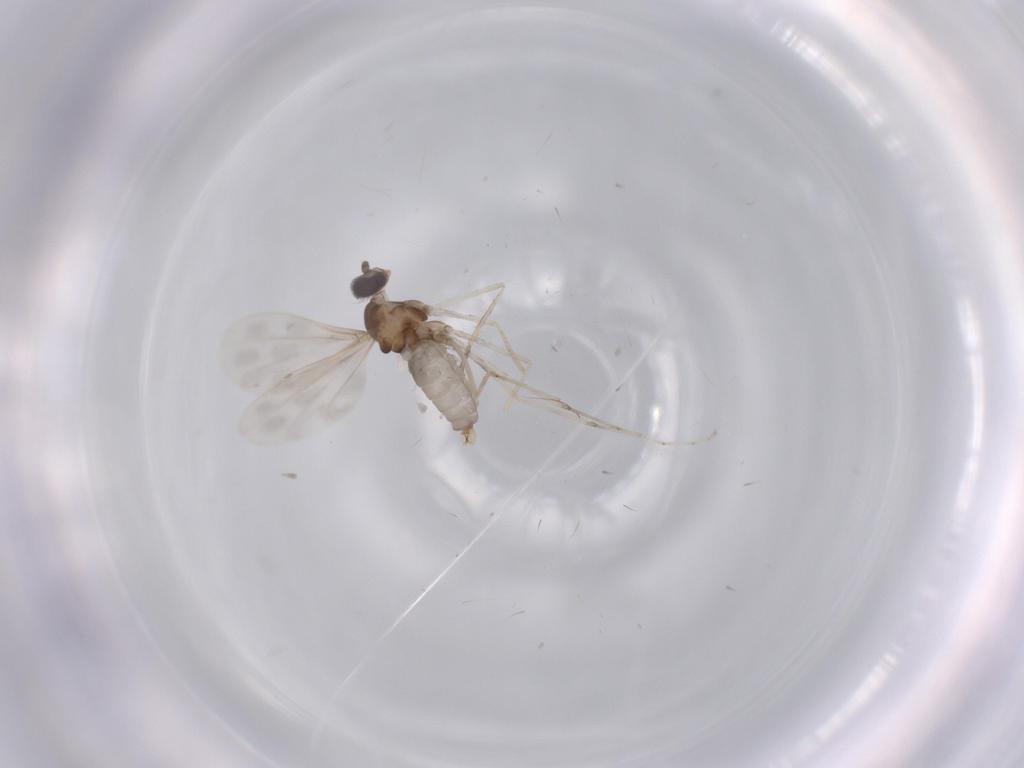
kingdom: Animalia
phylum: Arthropoda
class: Insecta
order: Diptera
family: Cecidomyiidae
